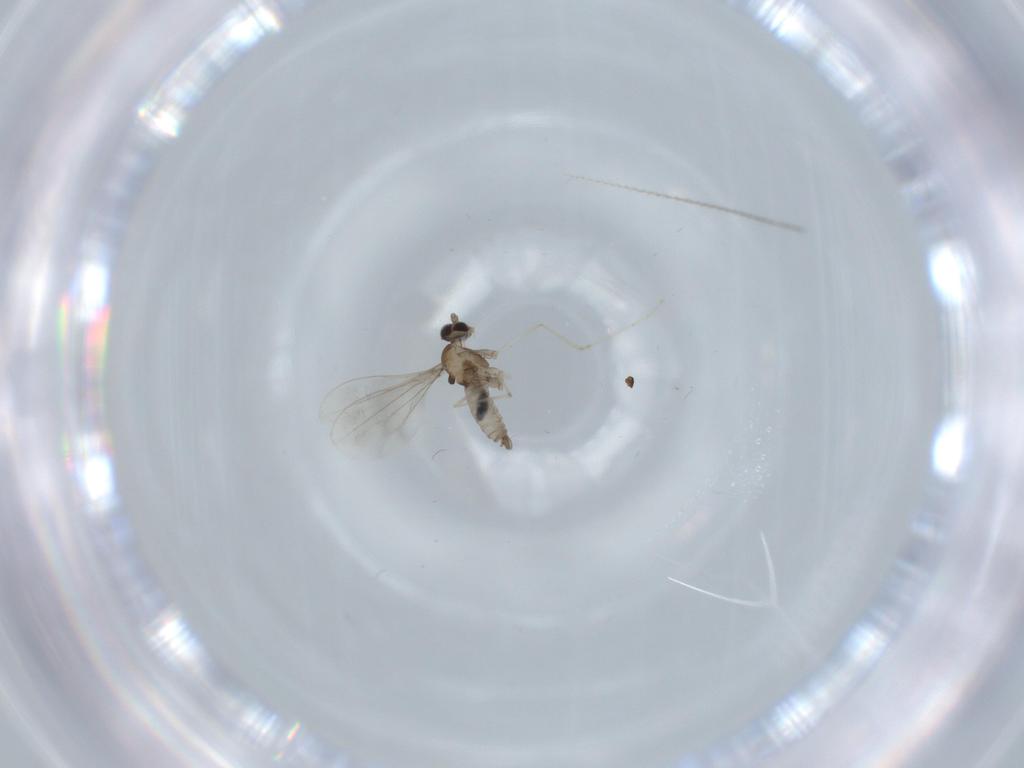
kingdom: Animalia
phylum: Arthropoda
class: Insecta
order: Diptera
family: Cecidomyiidae
